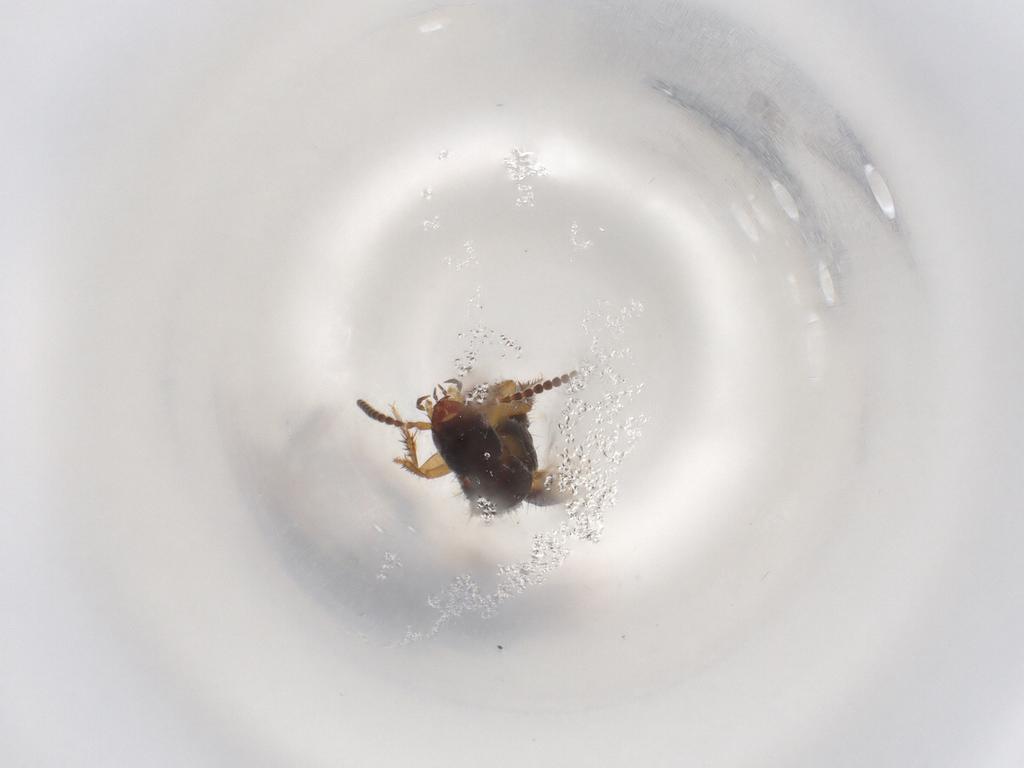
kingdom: Animalia
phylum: Arthropoda
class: Insecta
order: Coleoptera
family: Staphylinidae
